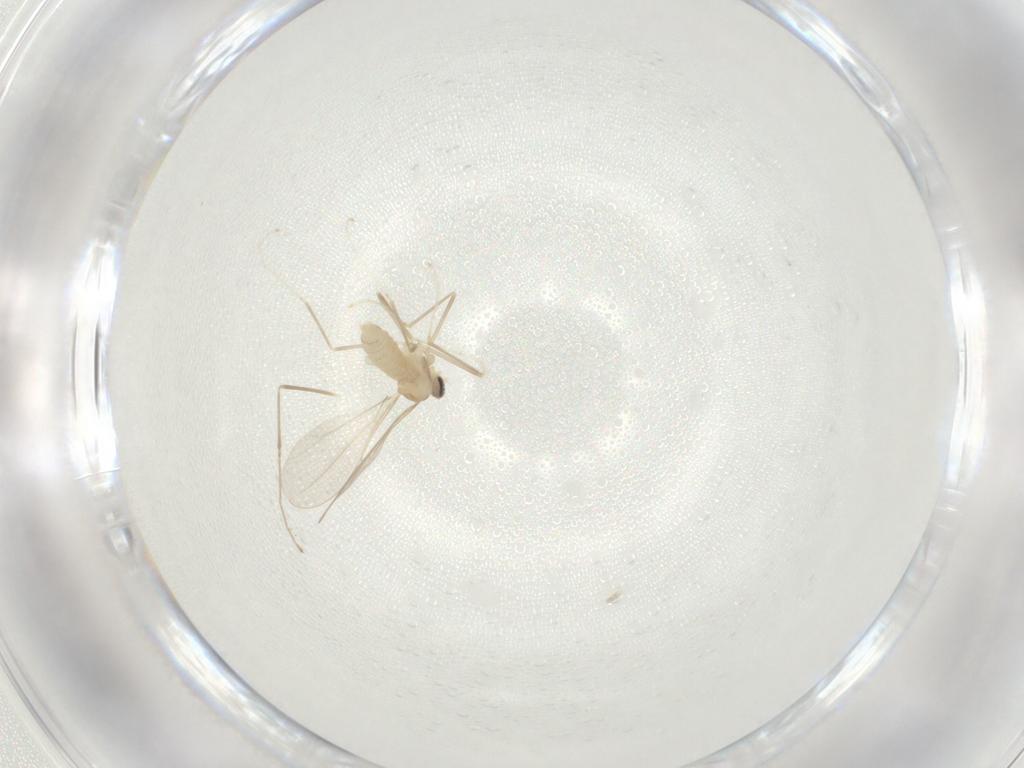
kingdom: Animalia
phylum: Arthropoda
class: Insecta
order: Diptera
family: Cecidomyiidae
